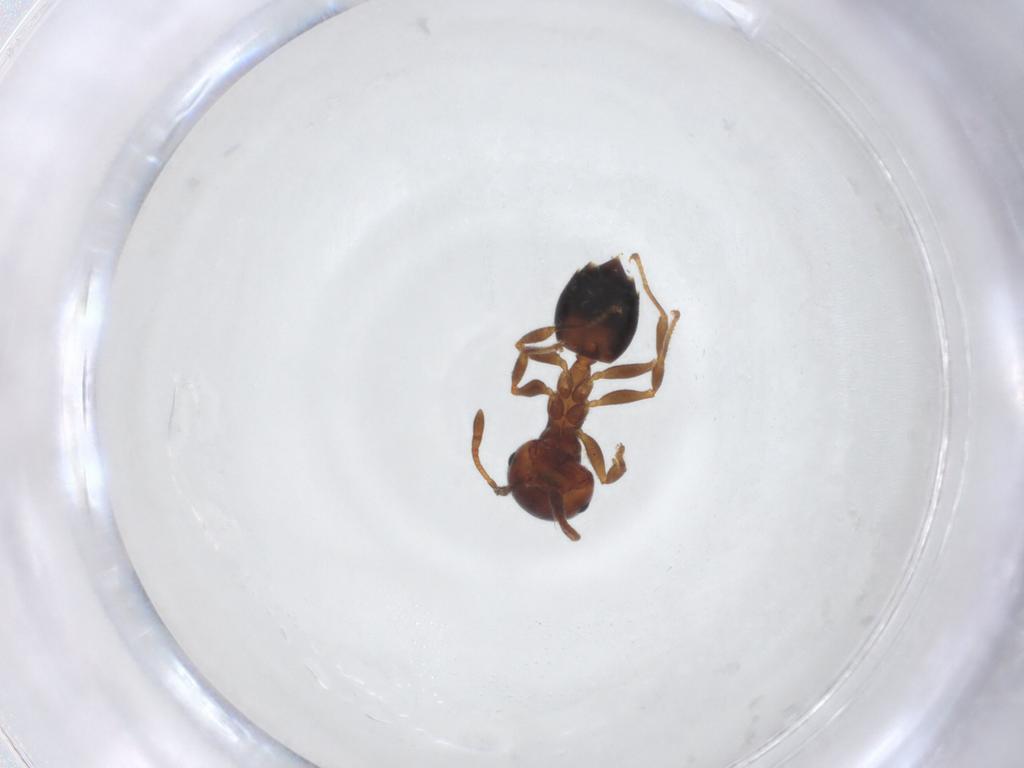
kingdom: Animalia
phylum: Arthropoda
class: Insecta
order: Hymenoptera
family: Formicidae
